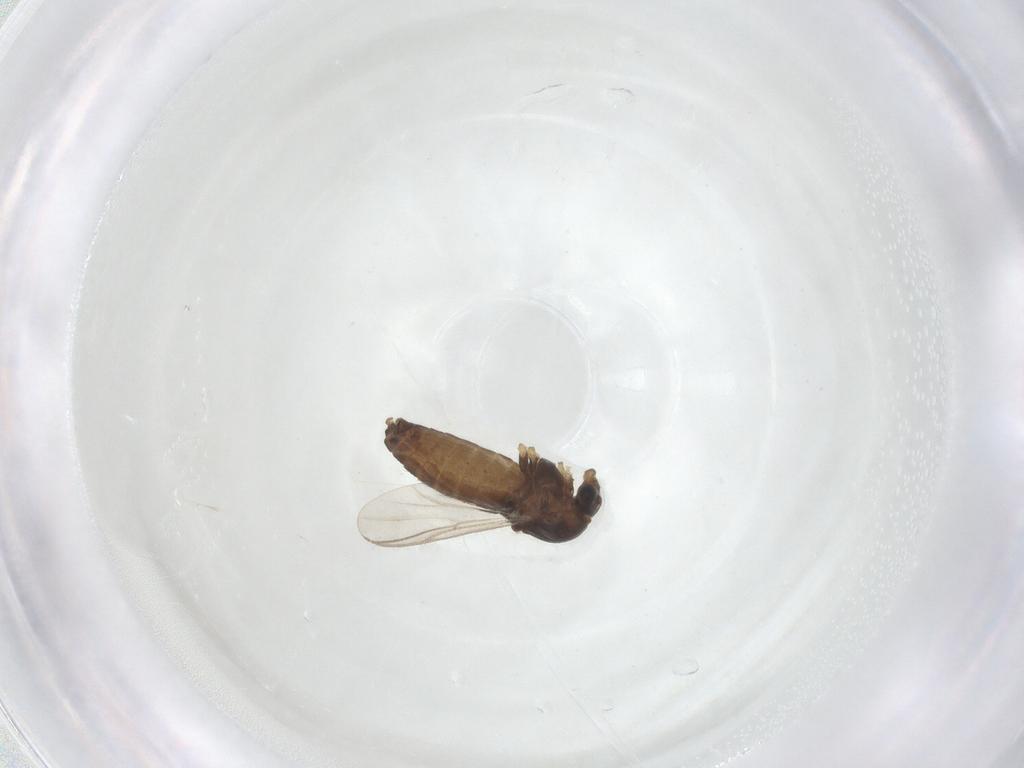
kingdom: Animalia
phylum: Arthropoda
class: Insecta
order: Diptera
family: Chironomidae
